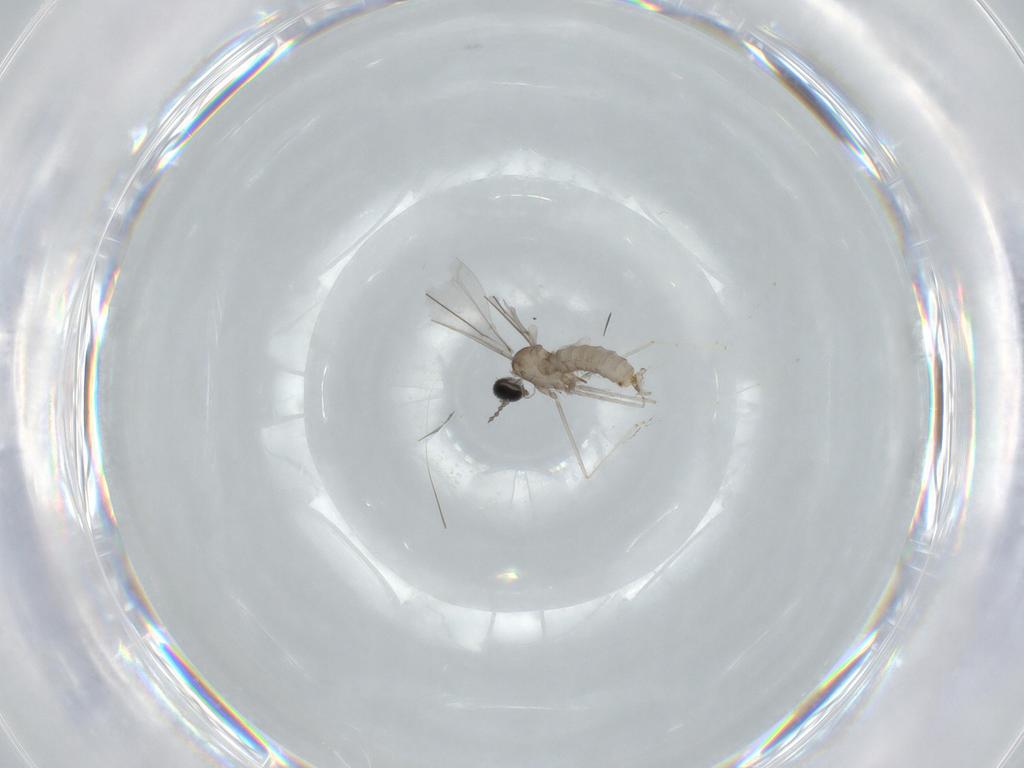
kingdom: Animalia
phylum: Arthropoda
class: Insecta
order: Diptera
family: Cecidomyiidae
